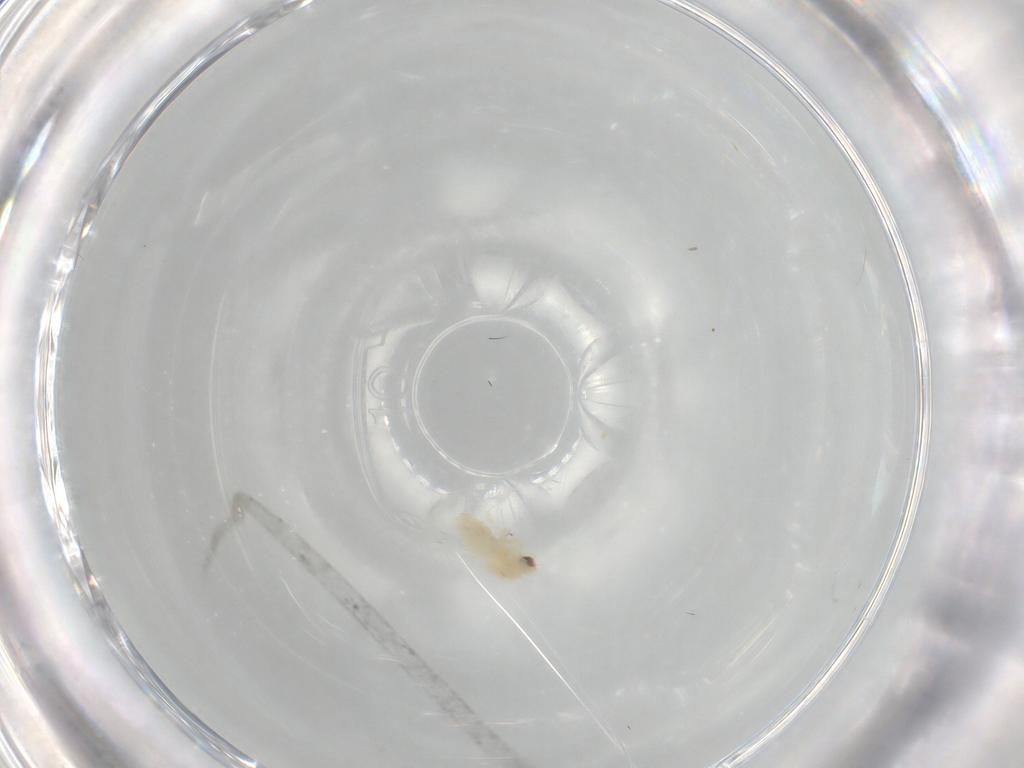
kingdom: Animalia
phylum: Arthropoda
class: Insecta
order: Hemiptera
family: Aleyrodidae
